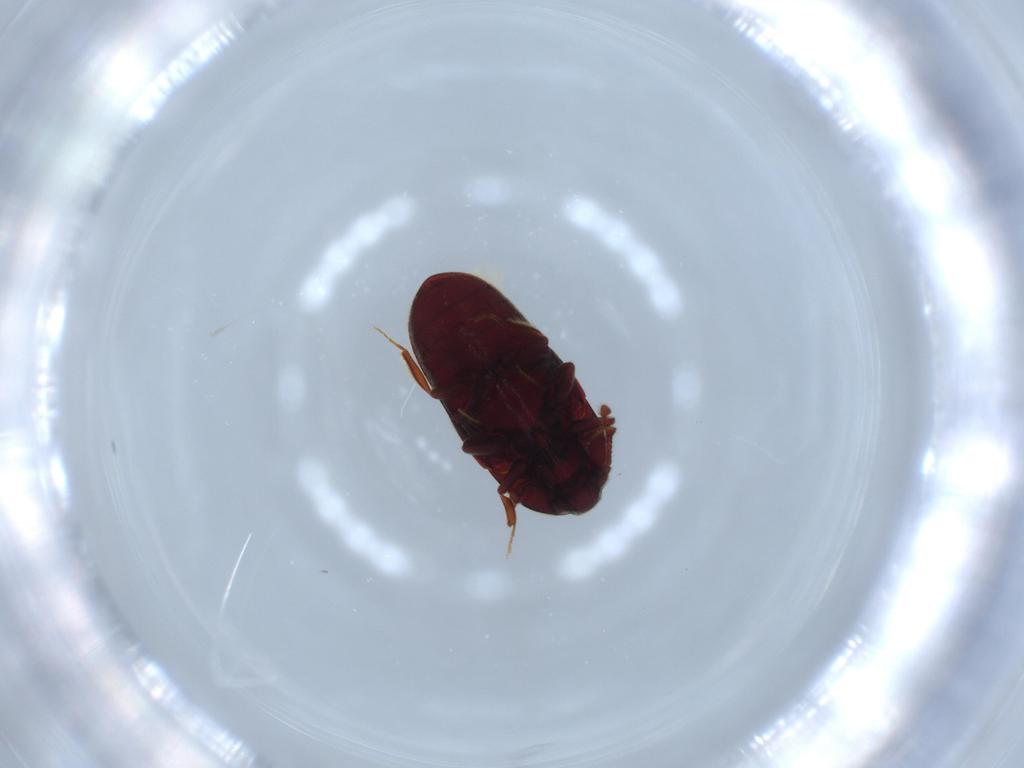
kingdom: Animalia
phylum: Arthropoda
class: Insecta
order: Coleoptera
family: Throscidae
